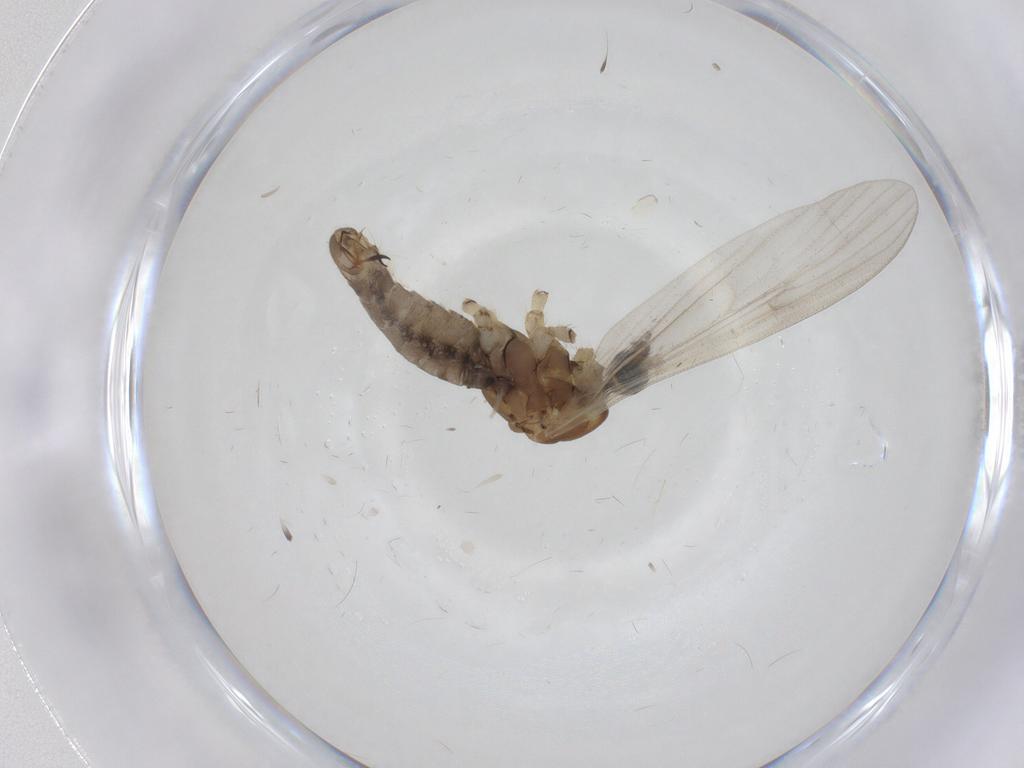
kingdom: Animalia
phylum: Arthropoda
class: Insecta
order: Diptera
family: Limoniidae
